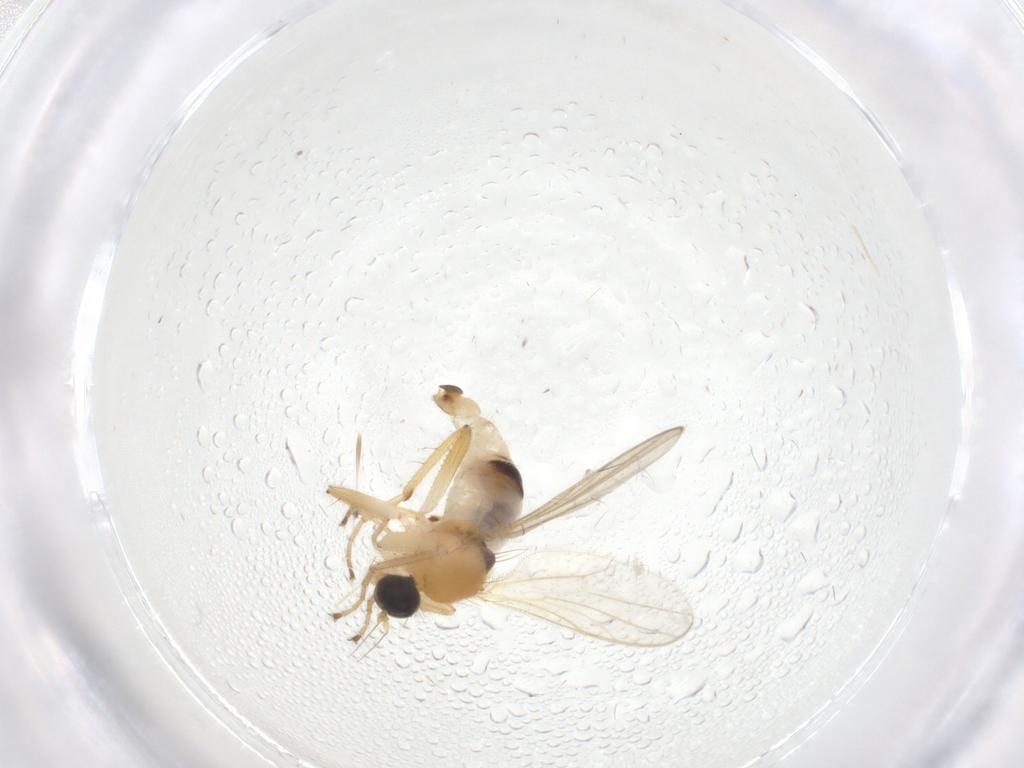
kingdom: Animalia
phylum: Arthropoda
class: Insecta
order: Diptera
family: Hybotidae
